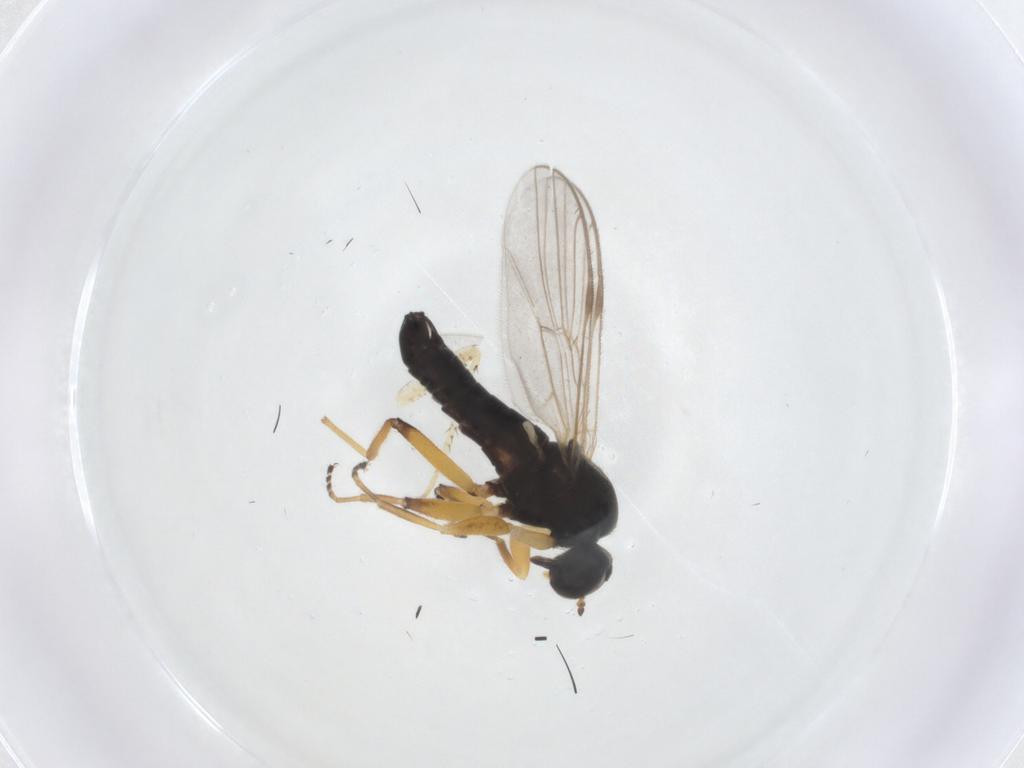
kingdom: Animalia
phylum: Arthropoda
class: Insecta
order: Diptera
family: Hybotidae
